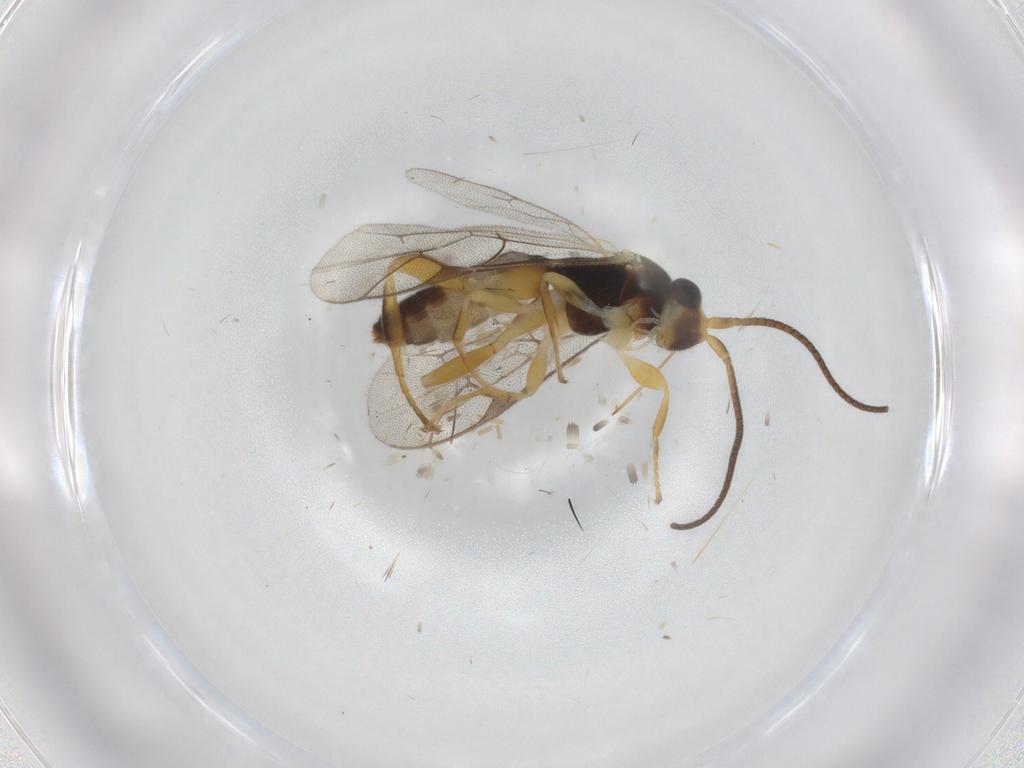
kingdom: Animalia
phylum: Arthropoda
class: Insecta
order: Hymenoptera
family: Ichneumonidae
